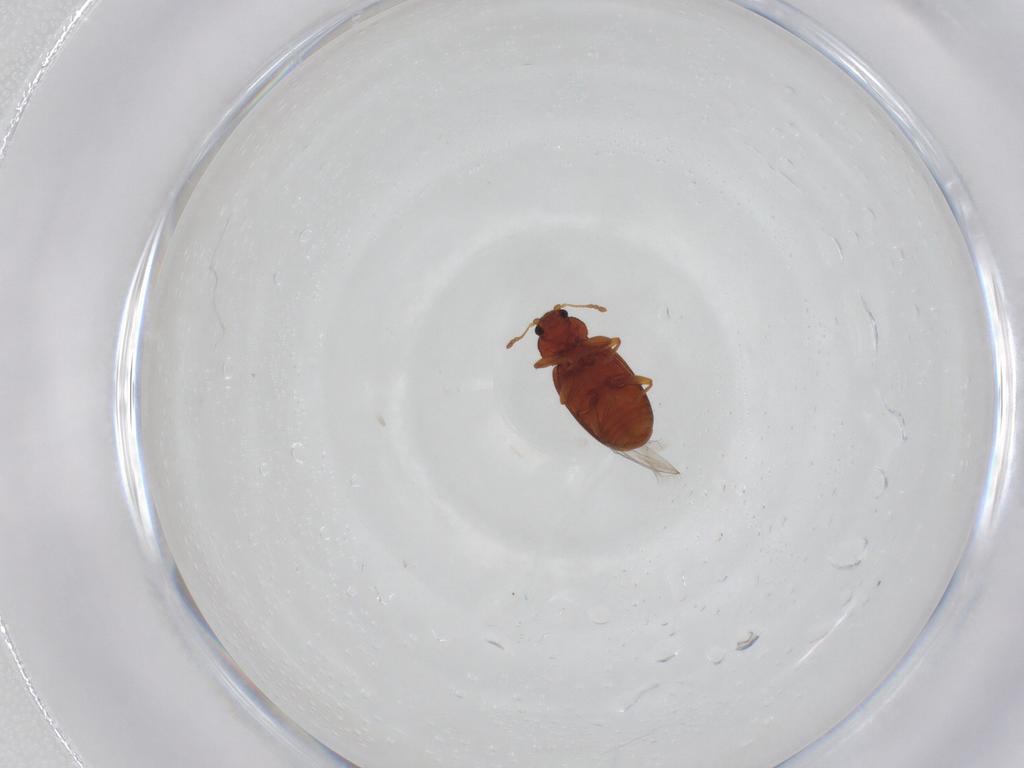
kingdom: Animalia
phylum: Arthropoda
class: Insecta
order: Coleoptera
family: Latridiidae
